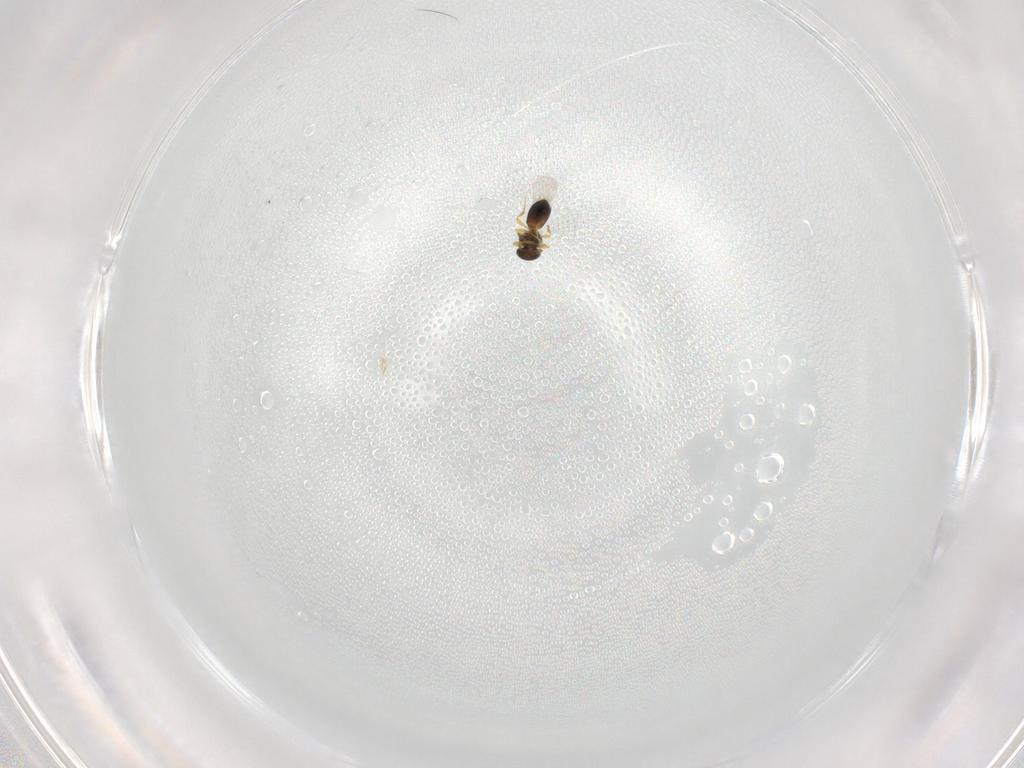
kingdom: Animalia
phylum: Arthropoda
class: Insecta
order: Hymenoptera
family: Platygastridae
